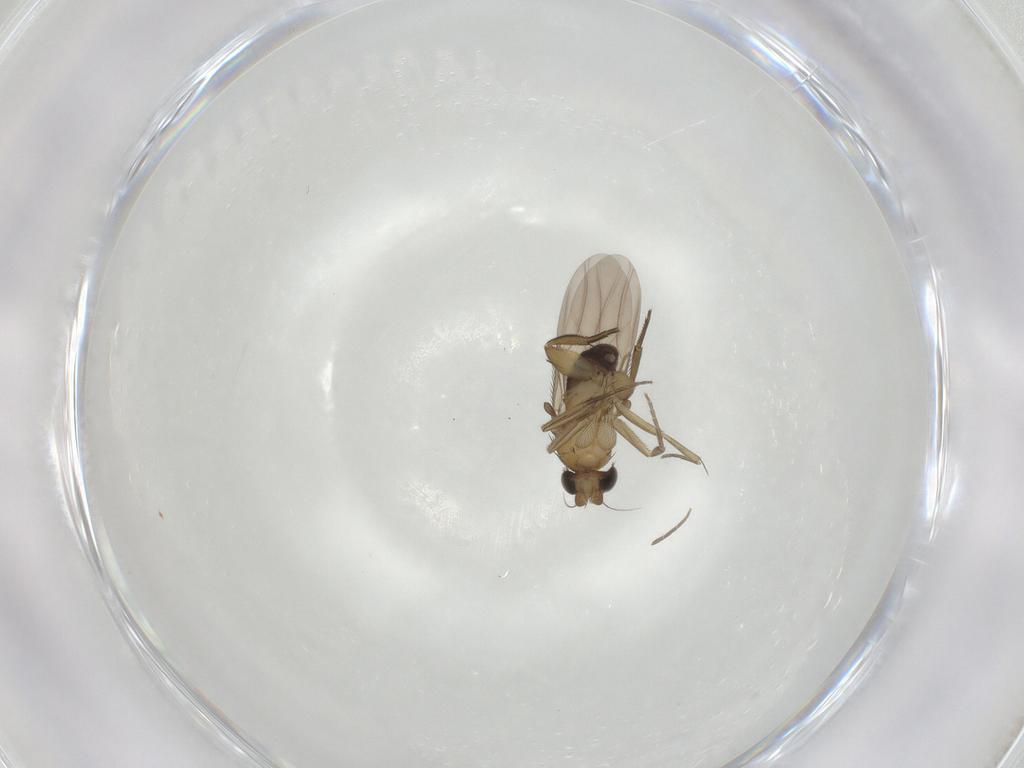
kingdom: Animalia
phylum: Arthropoda
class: Insecta
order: Diptera
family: Phoridae
